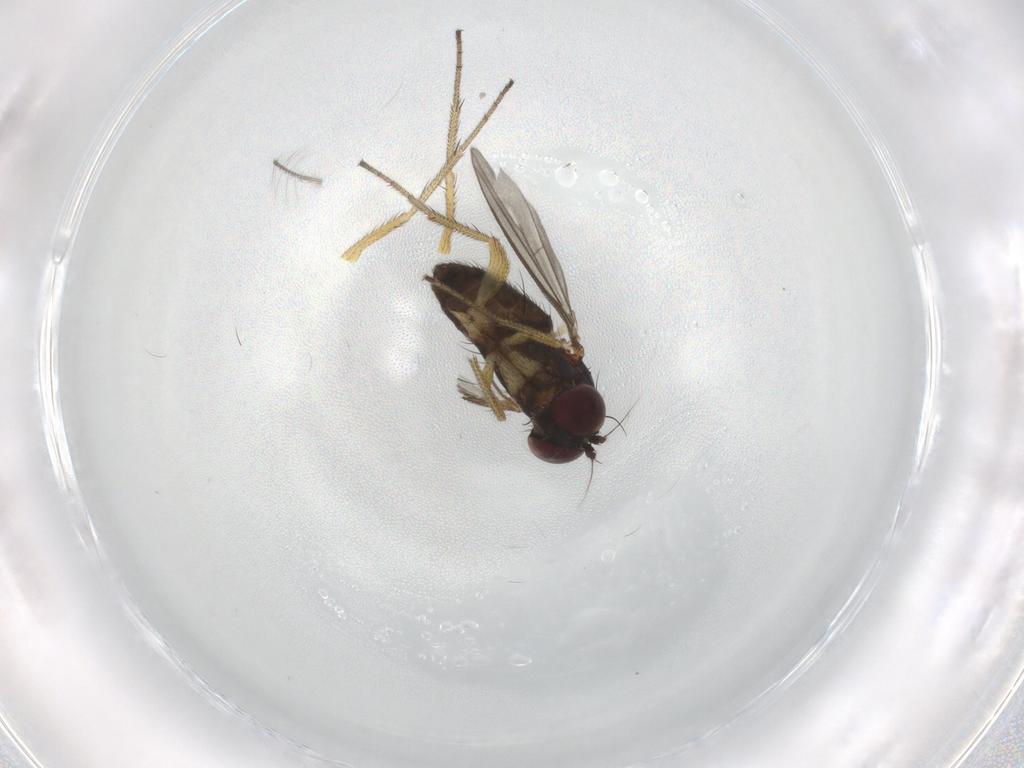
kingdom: Animalia
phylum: Arthropoda
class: Insecta
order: Diptera
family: Chironomidae
